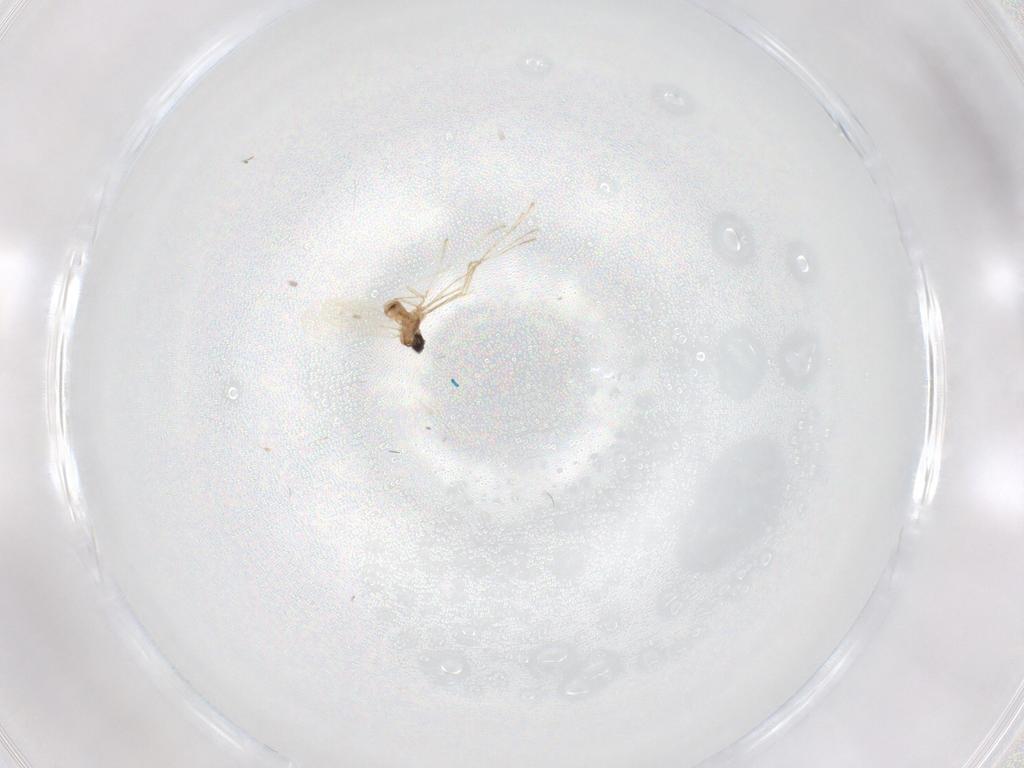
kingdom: Animalia
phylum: Arthropoda
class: Insecta
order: Diptera
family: Cecidomyiidae
